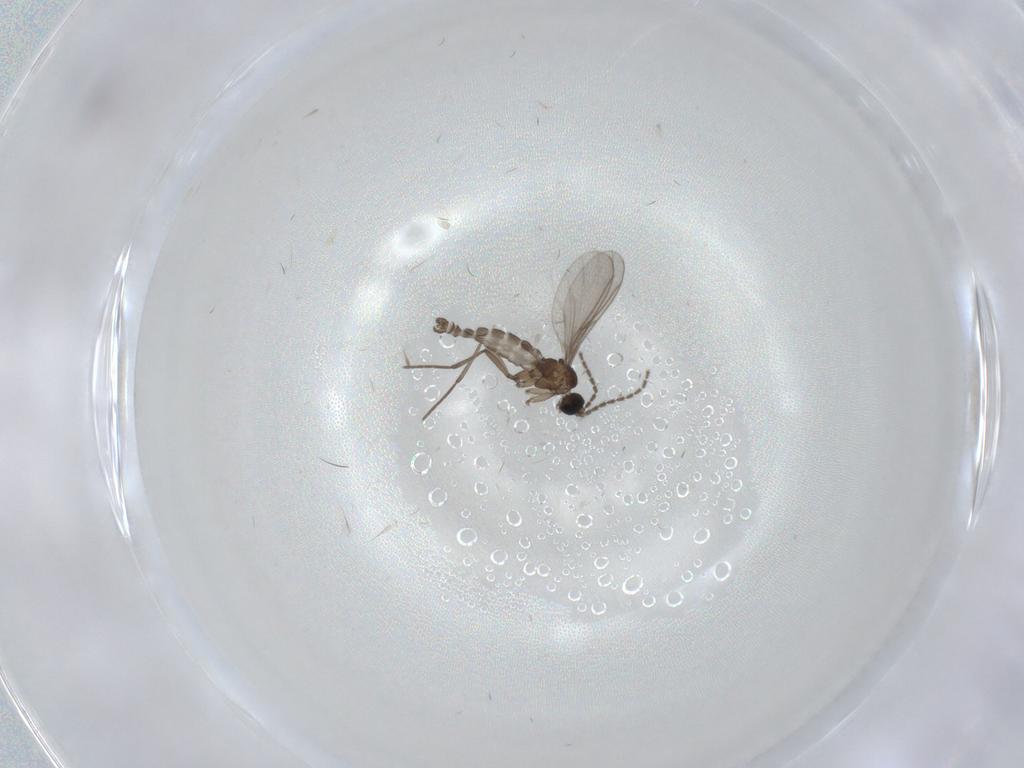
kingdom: Animalia
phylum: Arthropoda
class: Insecta
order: Diptera
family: Sciaridae
